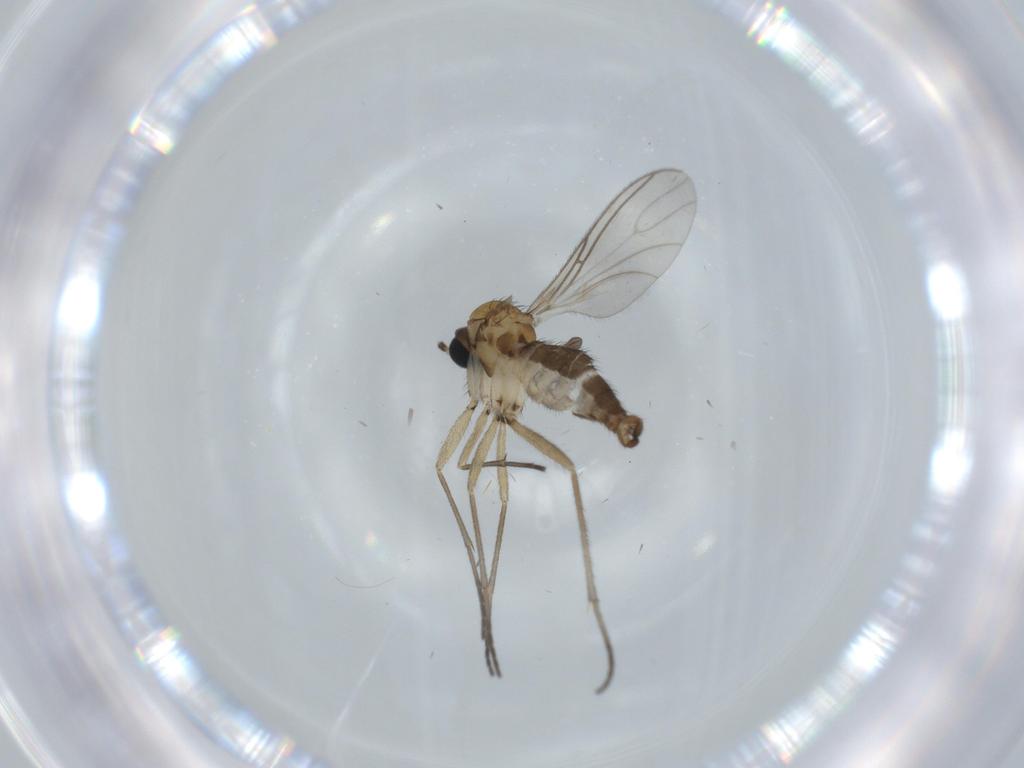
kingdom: Animalia
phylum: Arthropoda
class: Insecta
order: Diptera
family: Sciaridae
